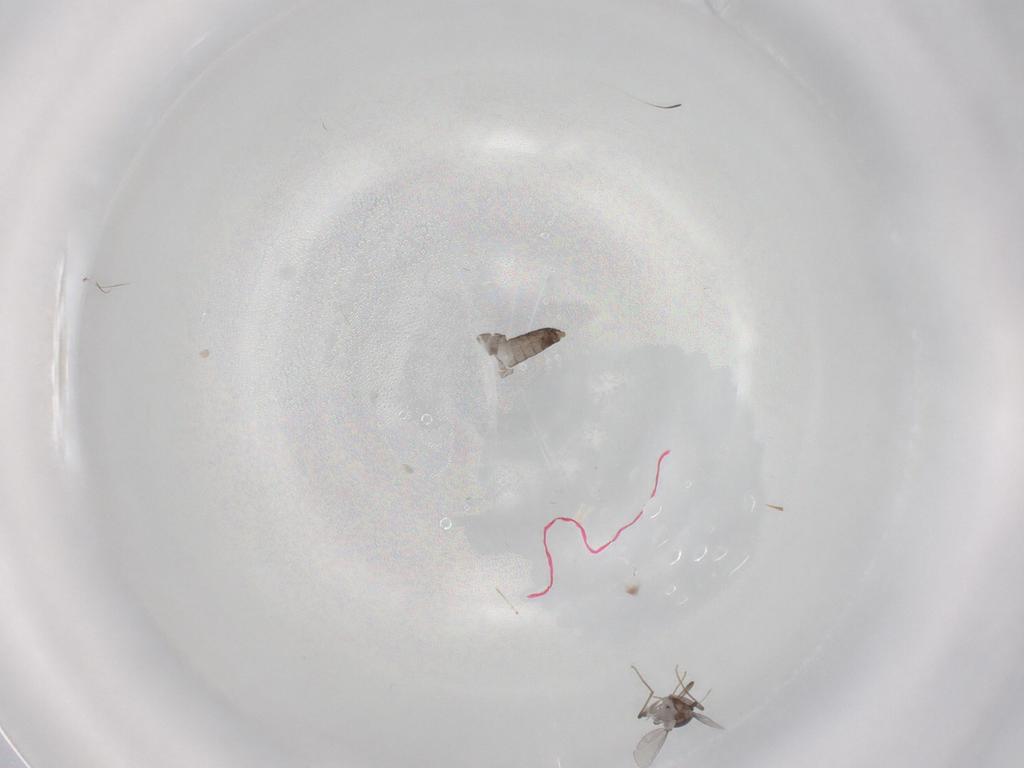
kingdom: Animalia
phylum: Arthropoda
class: Insecta
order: Diptera
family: Chironomidae
